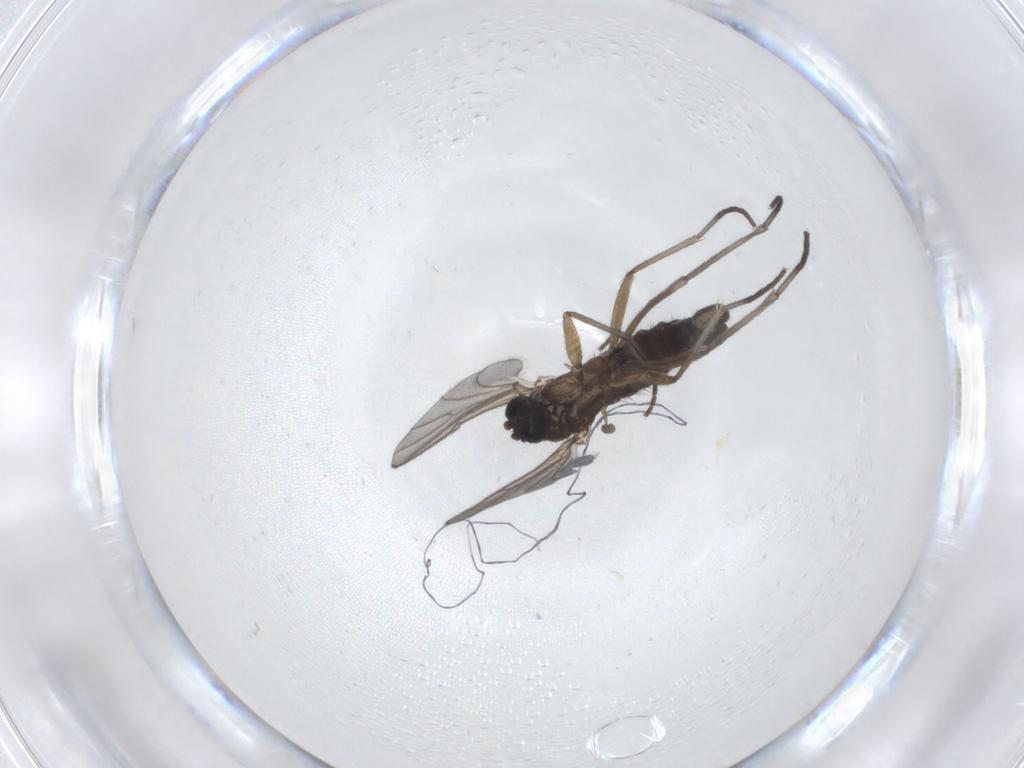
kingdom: Animalia
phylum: Arthropoda
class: Insecta
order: Diptera
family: Sciaridae
